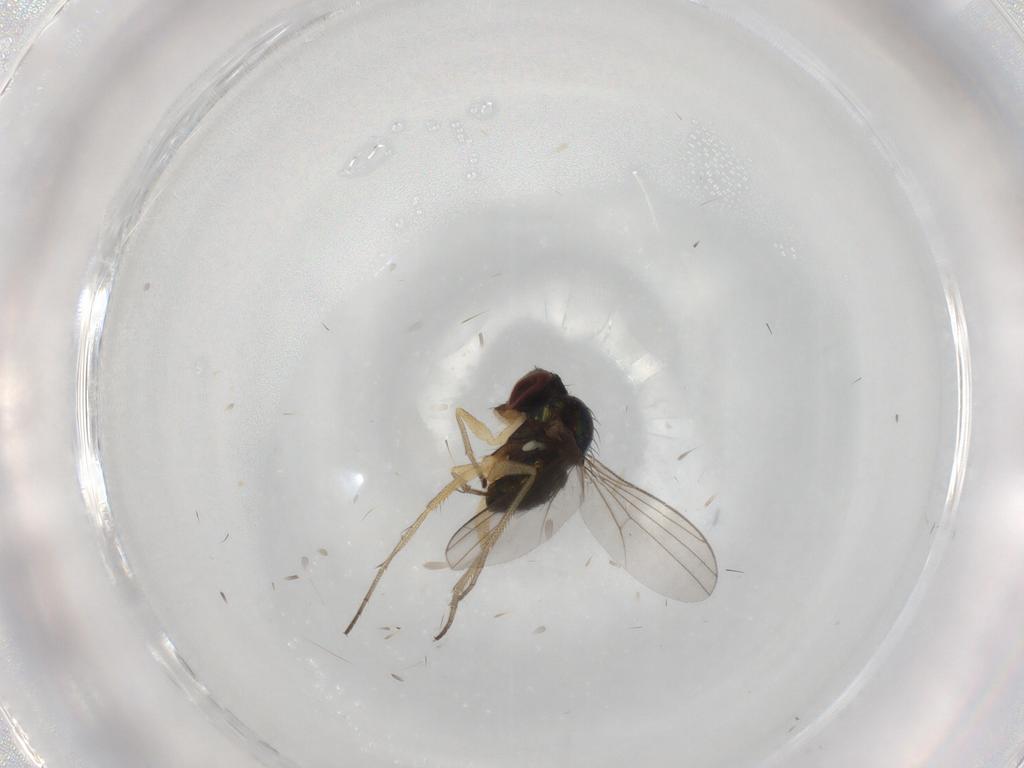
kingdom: Animalia
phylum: Arthropoda
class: Insecta
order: Diptera
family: Dolichopodidae
